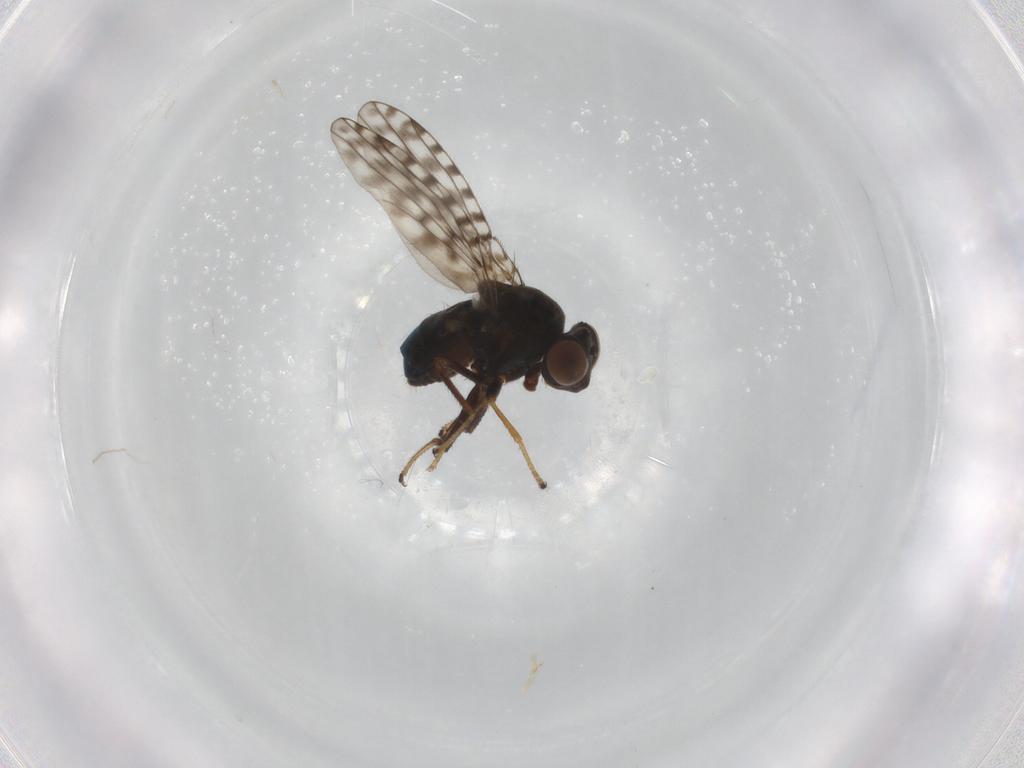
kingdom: Animalia
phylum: Arthropoda
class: Insecta
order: Diptera
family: Ephydridae
